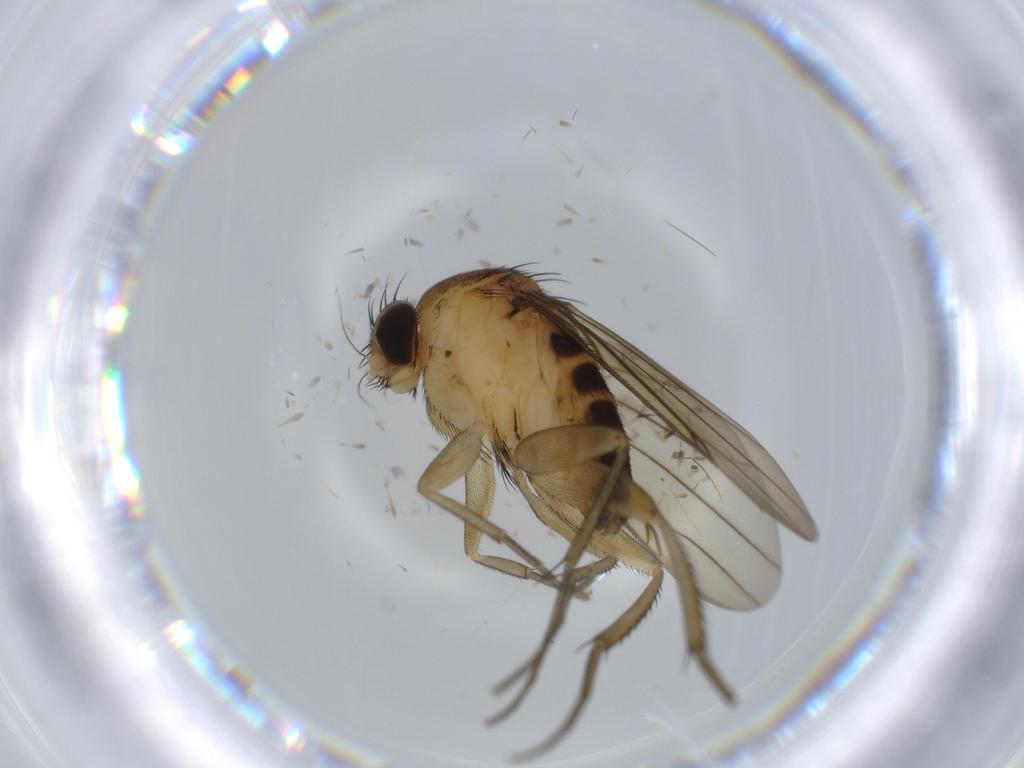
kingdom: Animalia
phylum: Arthropoda
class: Insecta
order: Diptera
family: Phoridae
